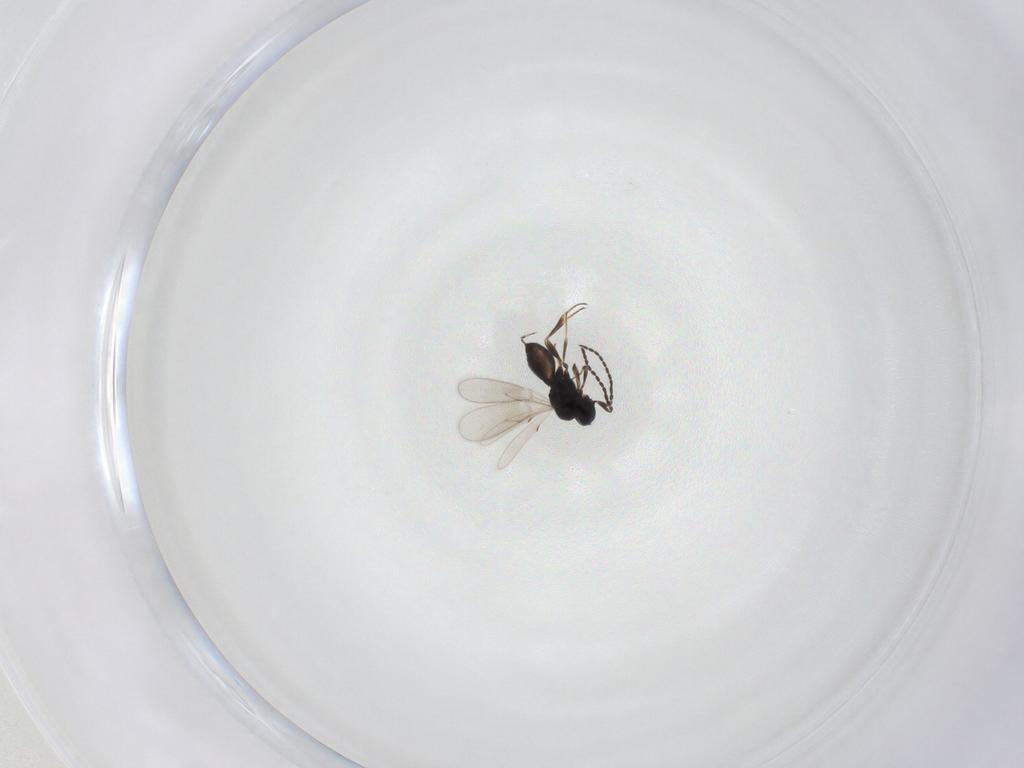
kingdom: Animalia
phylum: Arthropoda
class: Insecta
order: Hymenoptera
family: Scelionidae
